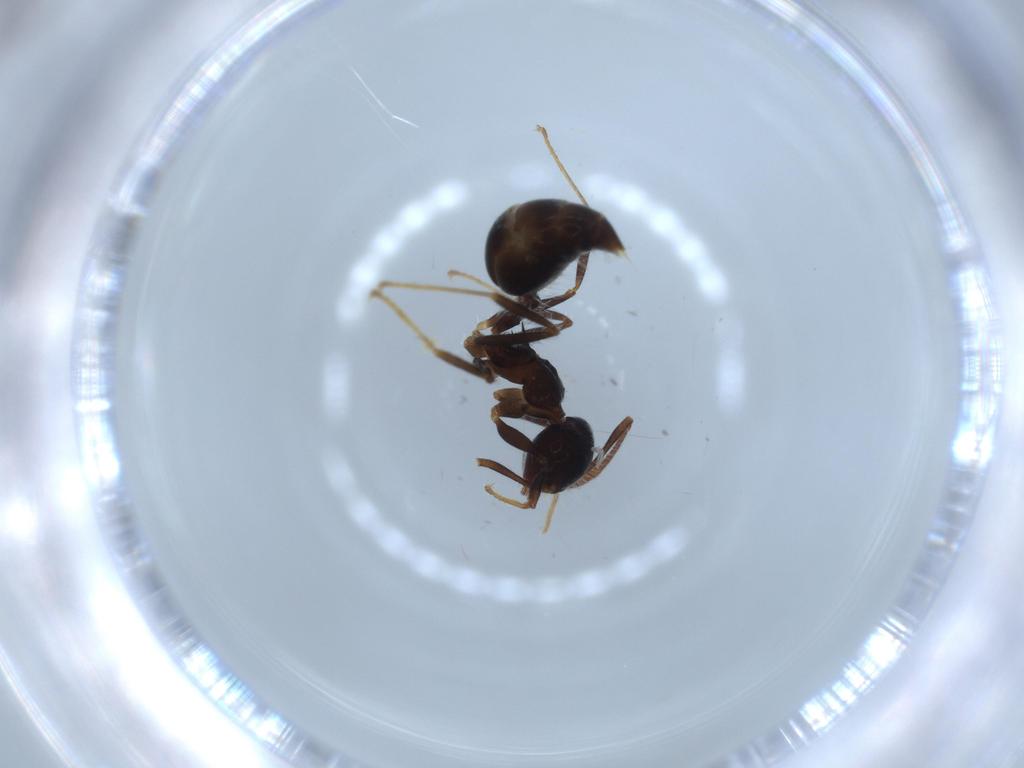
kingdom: Animalia
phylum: Arthropoda
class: Insecta
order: Hymenoptera
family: Formicidae
